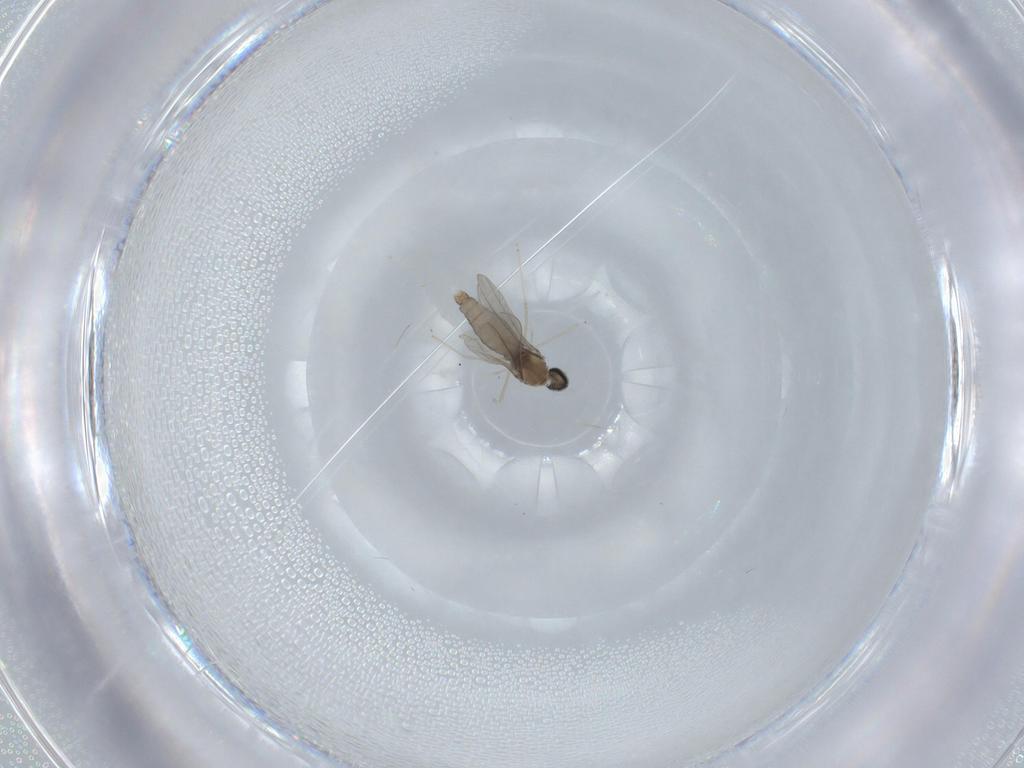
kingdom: Animalia
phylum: Arthropoda
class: Insecta
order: Diptera
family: Cecidomyiidae
